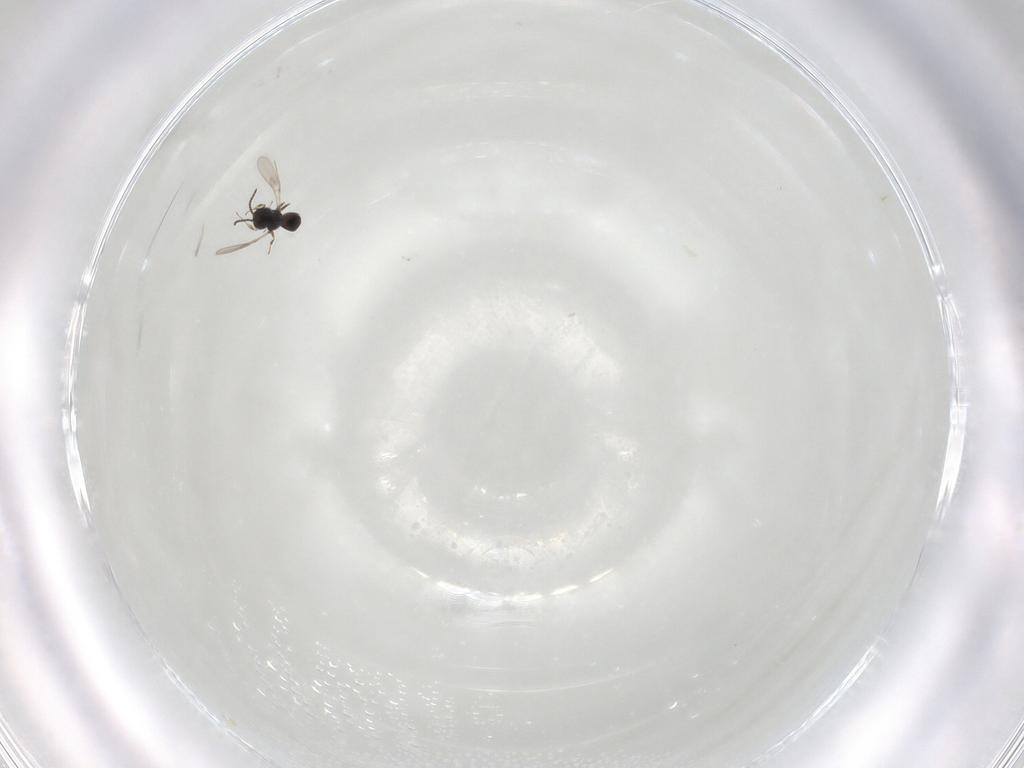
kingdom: Animalia
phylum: Arthropoda
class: Insecta
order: Hymenoptera
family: Scelionidae
